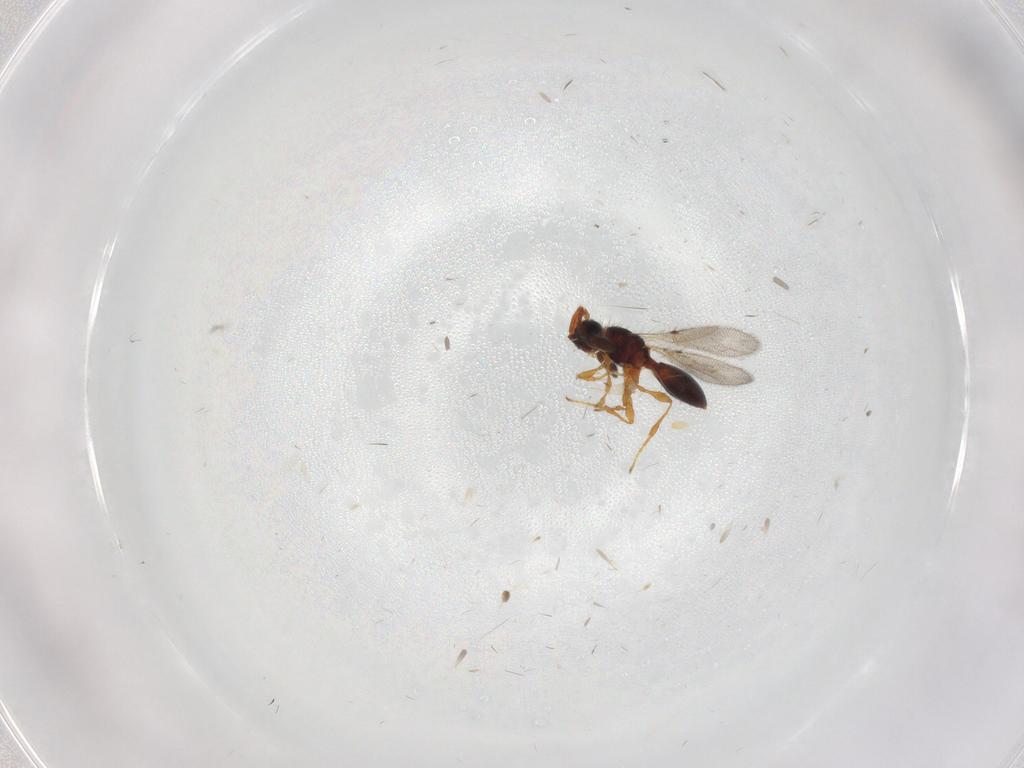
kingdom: Animalia
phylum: Arthropoda
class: Insecta
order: Hymenoptera
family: Diapriidae
